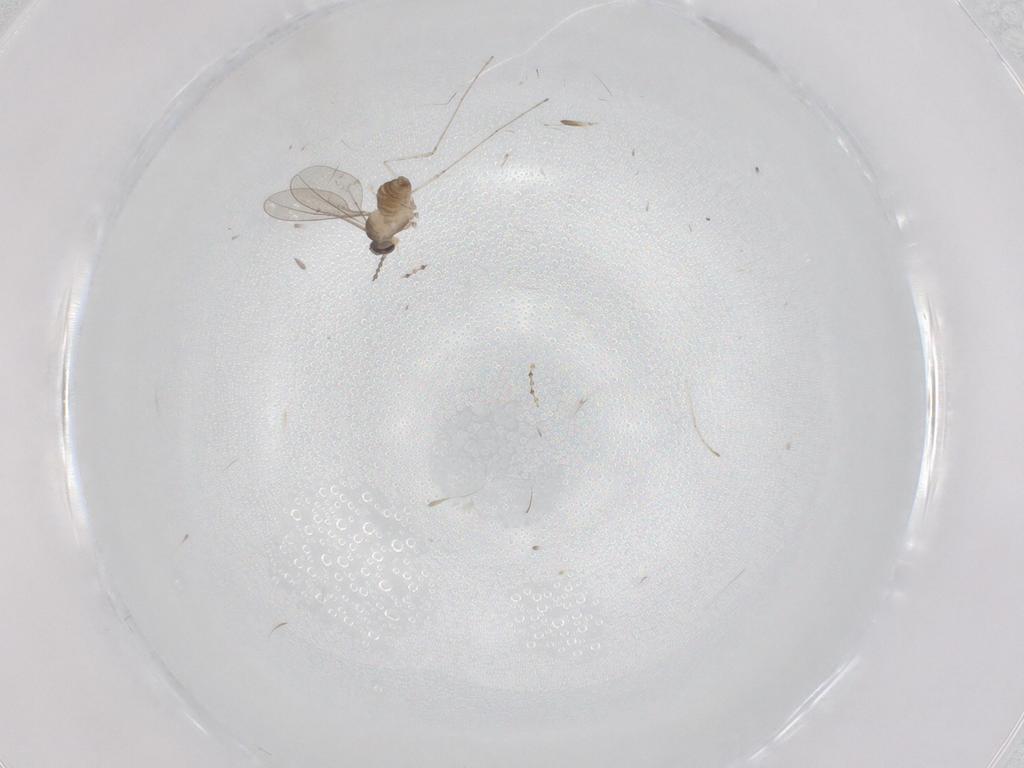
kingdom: Animalia
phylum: Arthropoda
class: Insecta
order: Diptera
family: Cecidomyiidae
